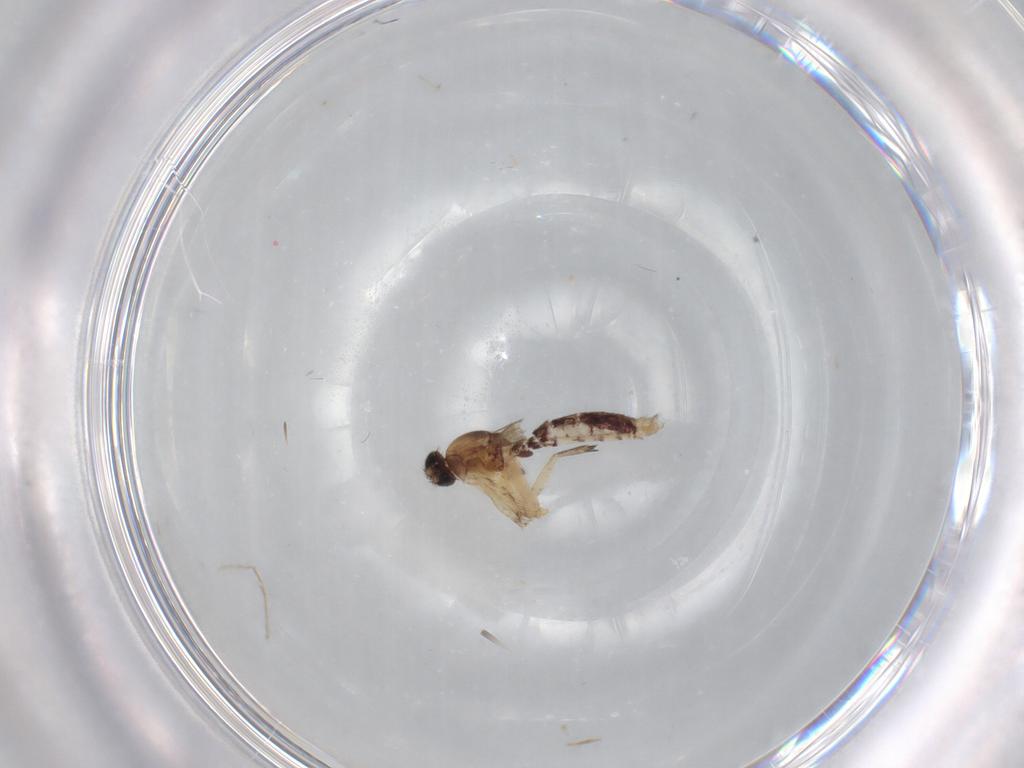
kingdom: Animalia
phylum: Arthropoda
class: Insecta
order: Diptera
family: Mycetophilidae
